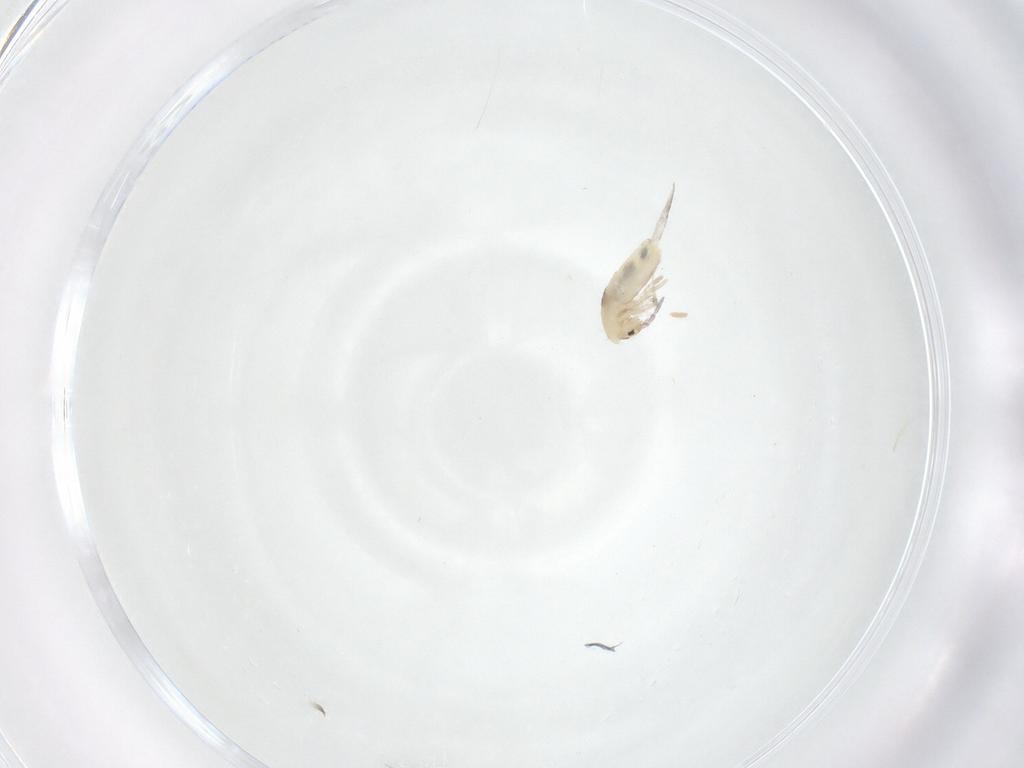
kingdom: Animalia
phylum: Arthropoda
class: Collembola
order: Entomobryomorpha
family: Entomobryidae
